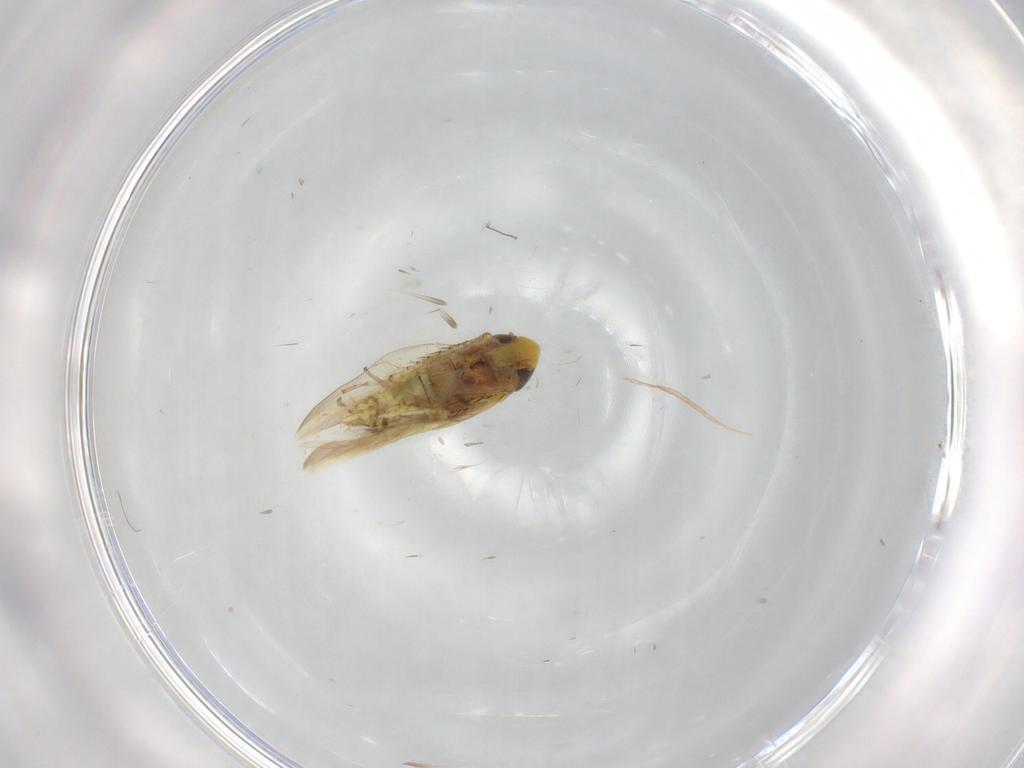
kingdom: Animalia
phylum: Arthropoda
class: Insecta
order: Hemiptera
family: Cicadellidae
